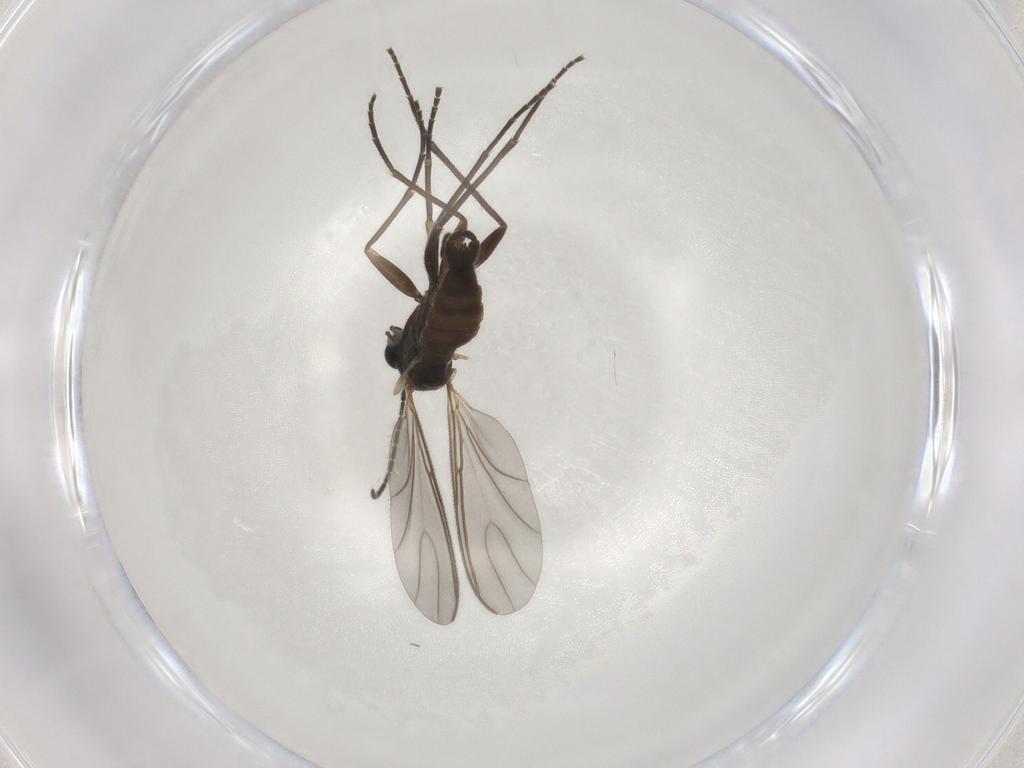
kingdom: Animalia
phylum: Arthropoda
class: Insecta
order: Diptera
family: Sciaridae
